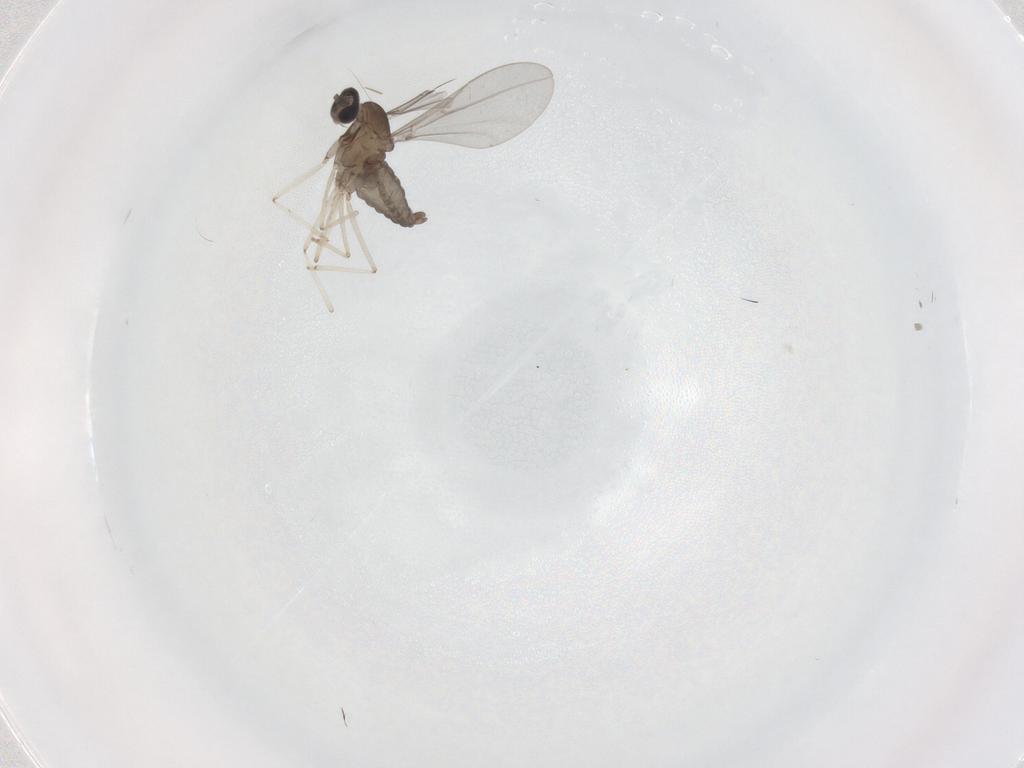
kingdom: Animalia
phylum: Arthropoda
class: Insecta
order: Diptera
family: Cecidomyiidae
